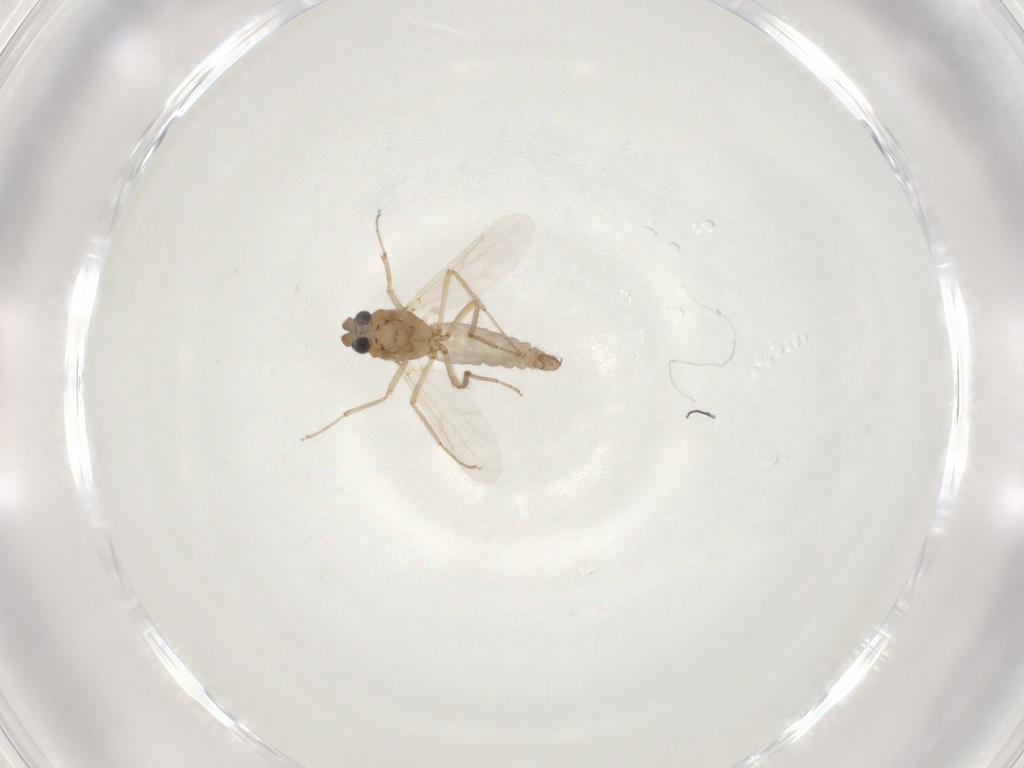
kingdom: Animalia
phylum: Arthropoda
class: Insecta
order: Diptera
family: Ceratopogonidae
